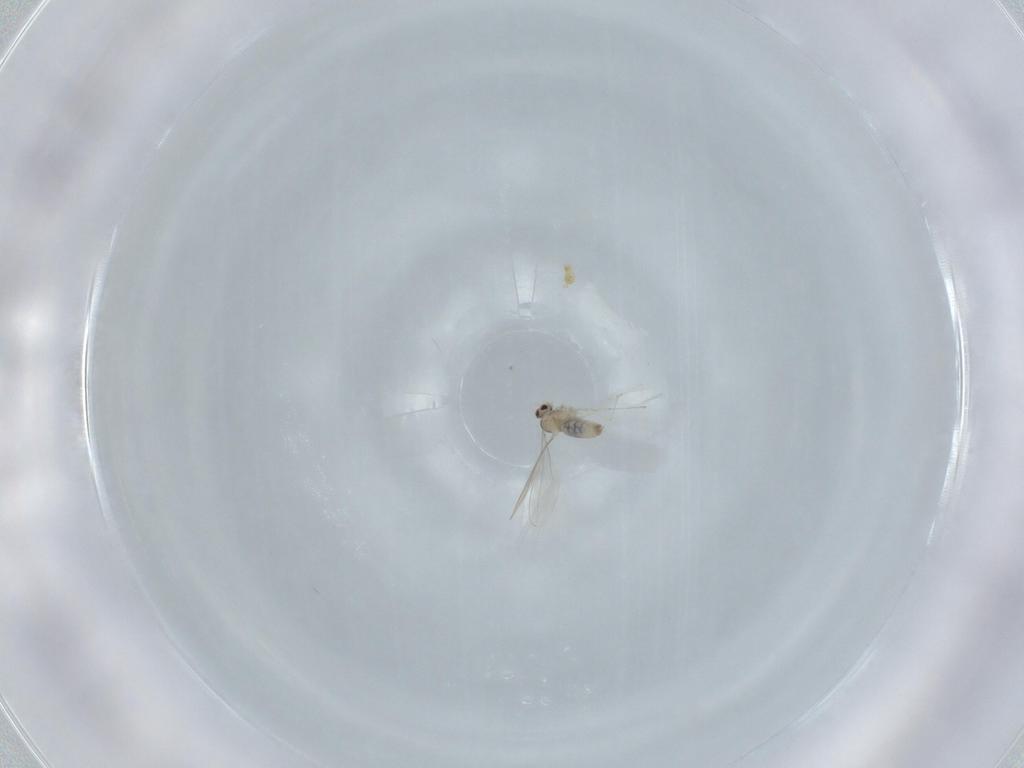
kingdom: Animalia
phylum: Arthropoda
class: Insecta
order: Diptera
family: Cecidomyiidae
